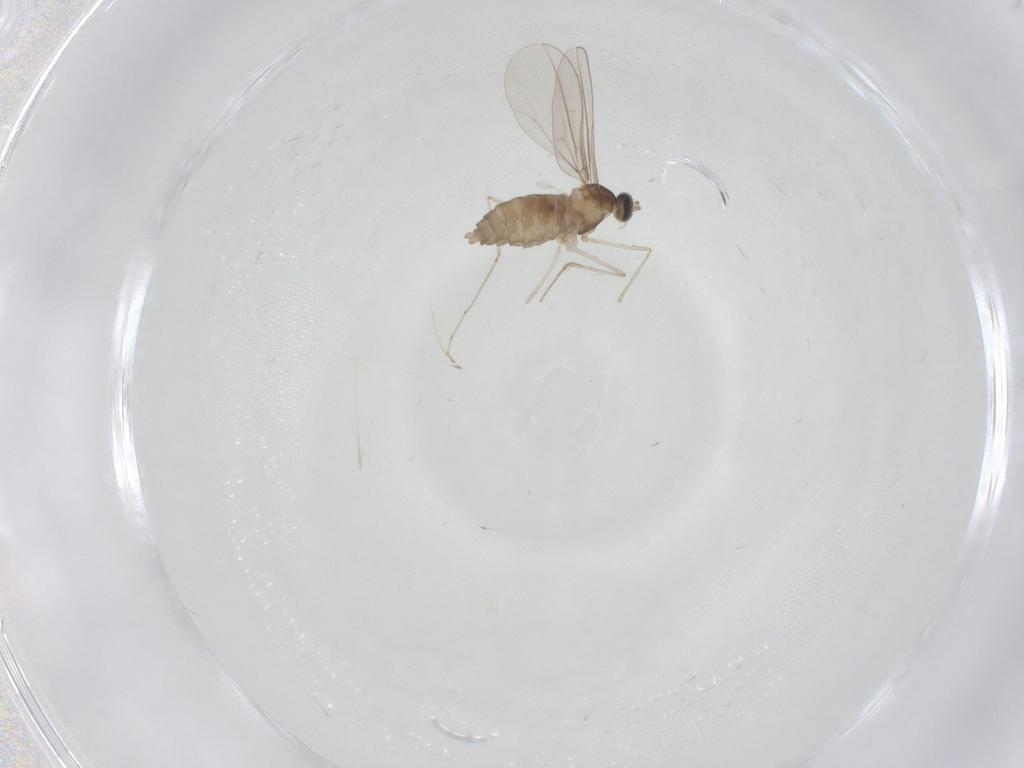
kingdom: Animalia
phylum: Arthropoda
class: Insecta
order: Diptera
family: Cecidomyiidae
